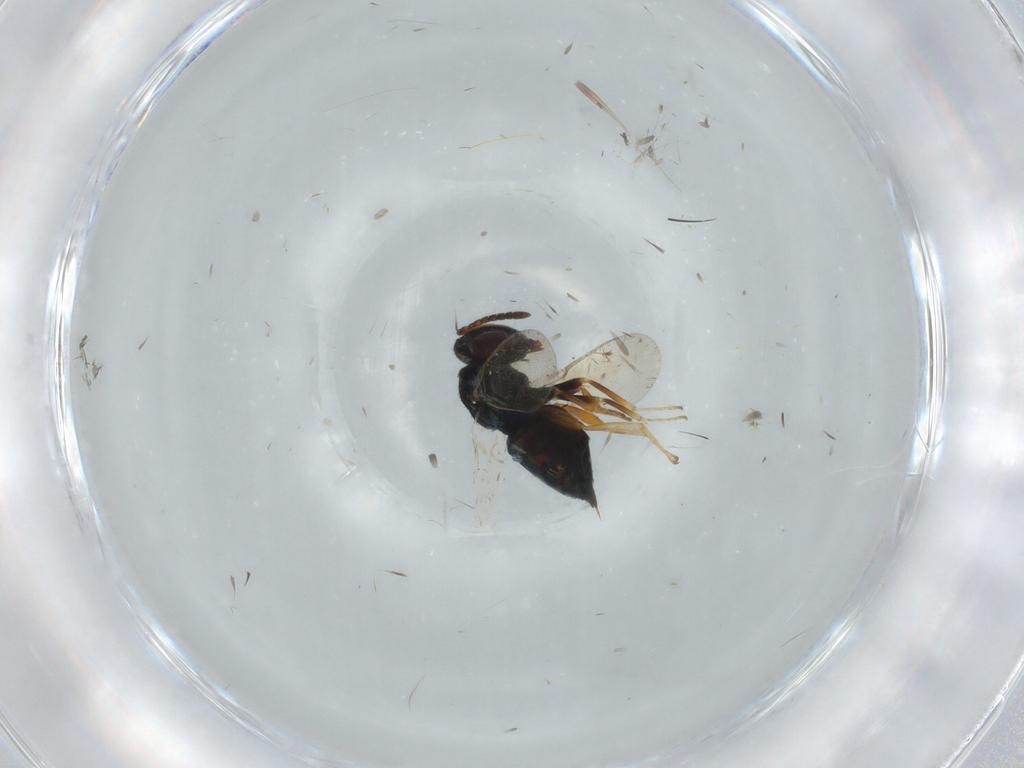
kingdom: Animalia
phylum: Arthropoda
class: Insecta
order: Hymenoptera
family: Pteromalidae
